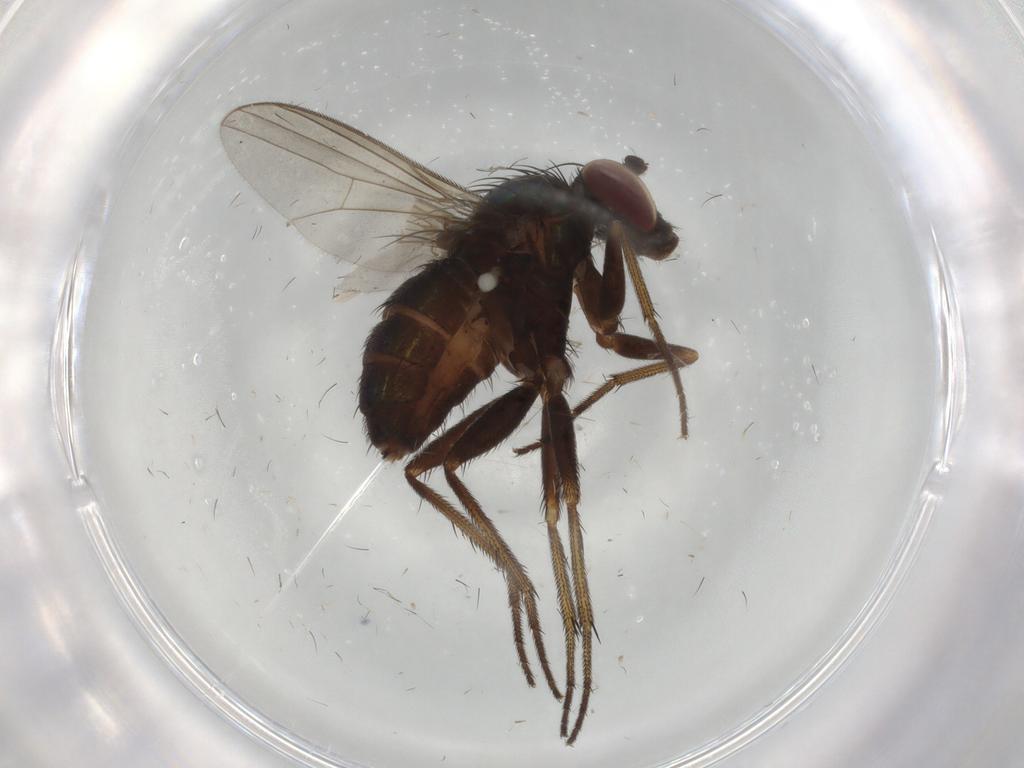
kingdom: Animalia
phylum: Arthropoda
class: Insecta
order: Diptera
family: Dolichopodidae
